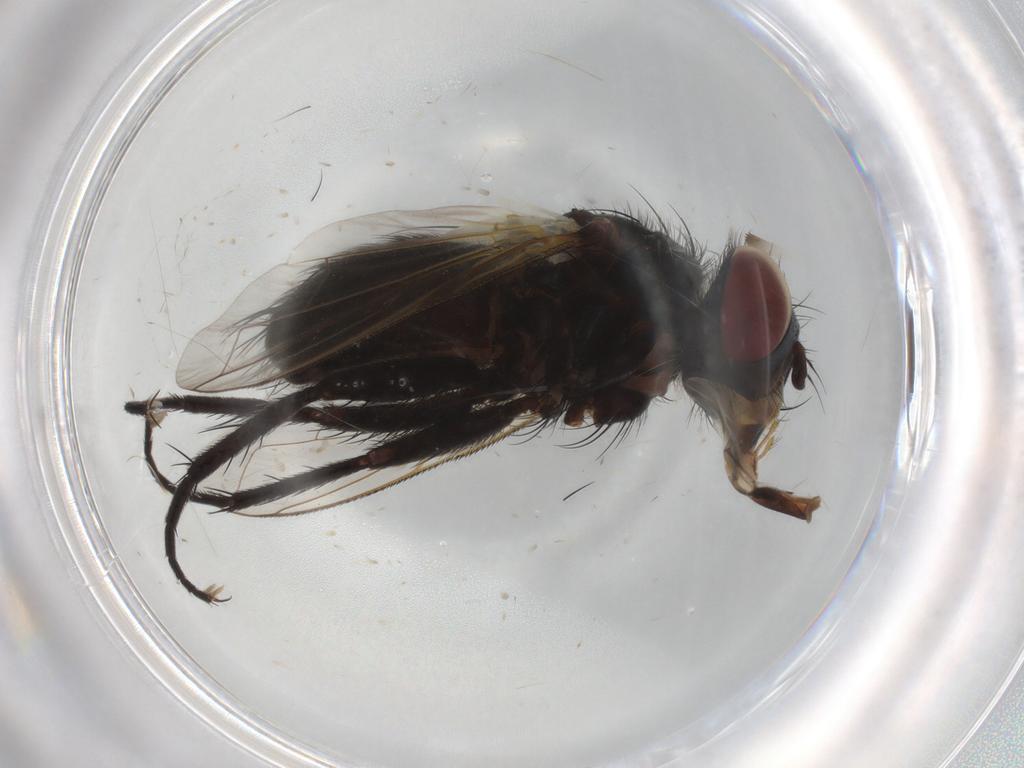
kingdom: Animalia
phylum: Arthropoda
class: Insecta
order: Diptera
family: Tachinidae
